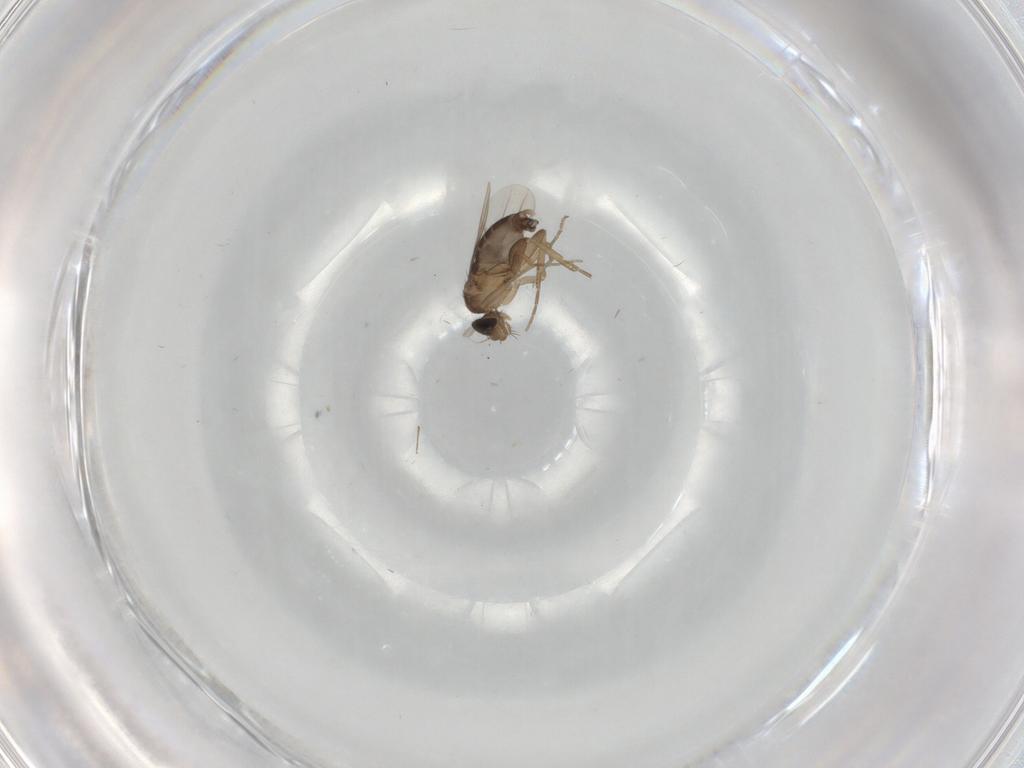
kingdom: Animalia
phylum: Arthropoda
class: Insecta
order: Diptera
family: Phoridae
